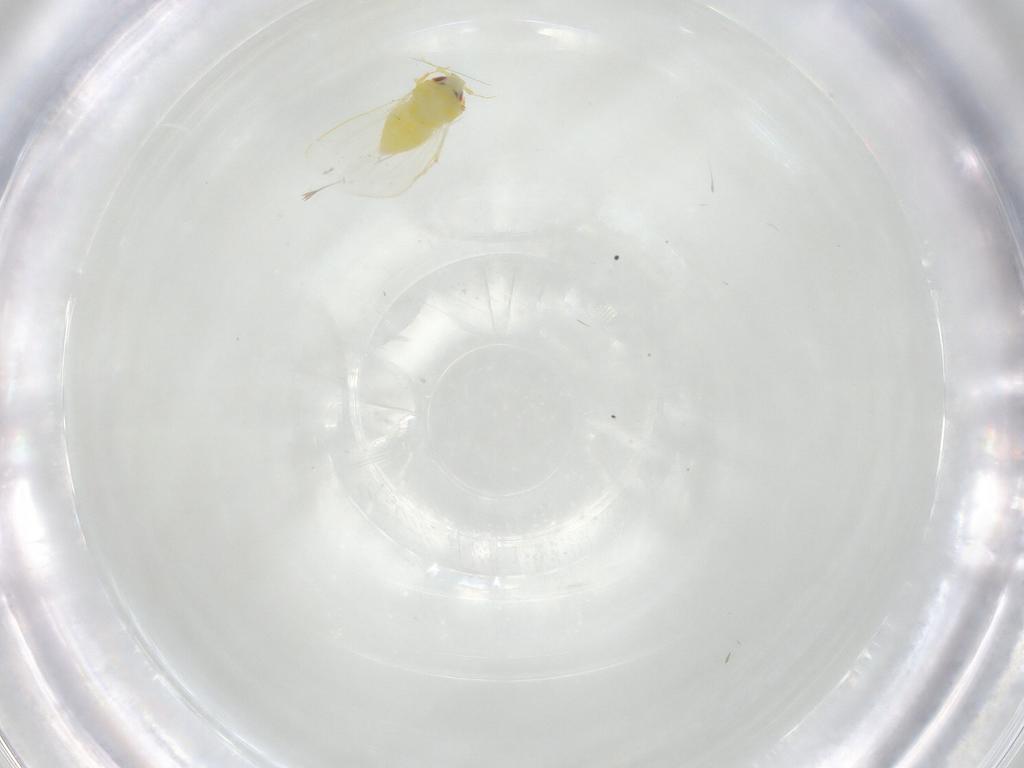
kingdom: Animalia
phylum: Arthropoda
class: Insecta
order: Hemiptera
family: Aleyrodidae
